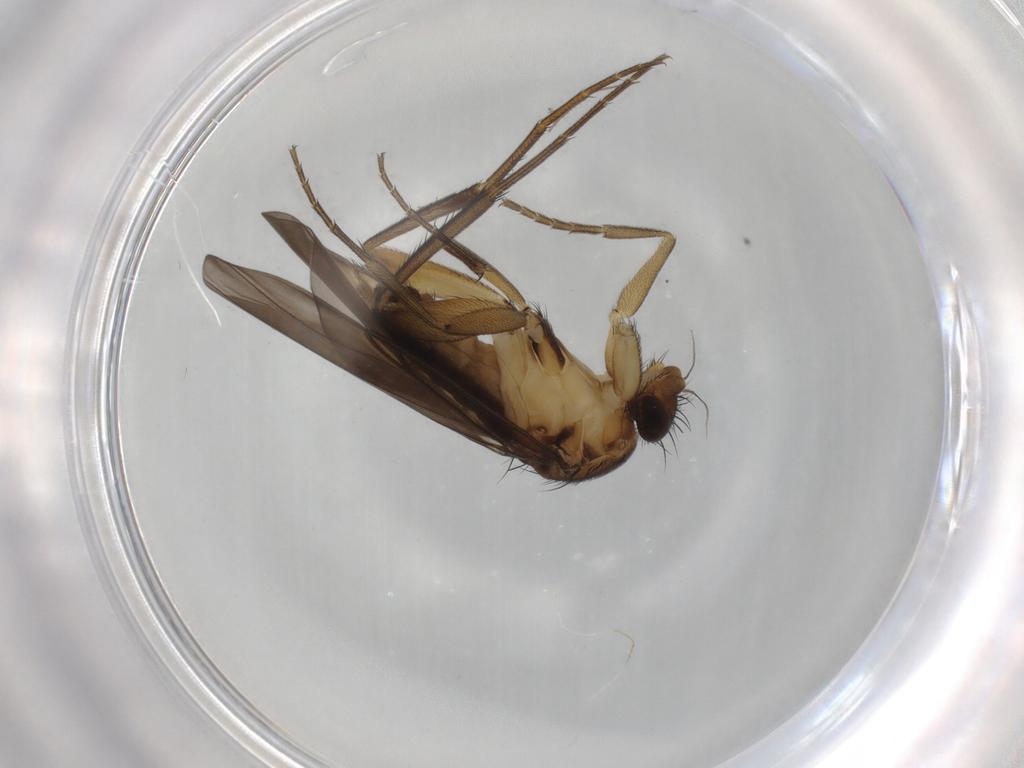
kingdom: Animalia
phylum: Arthropoda
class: Insecta
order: Diptera
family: Phoridae
